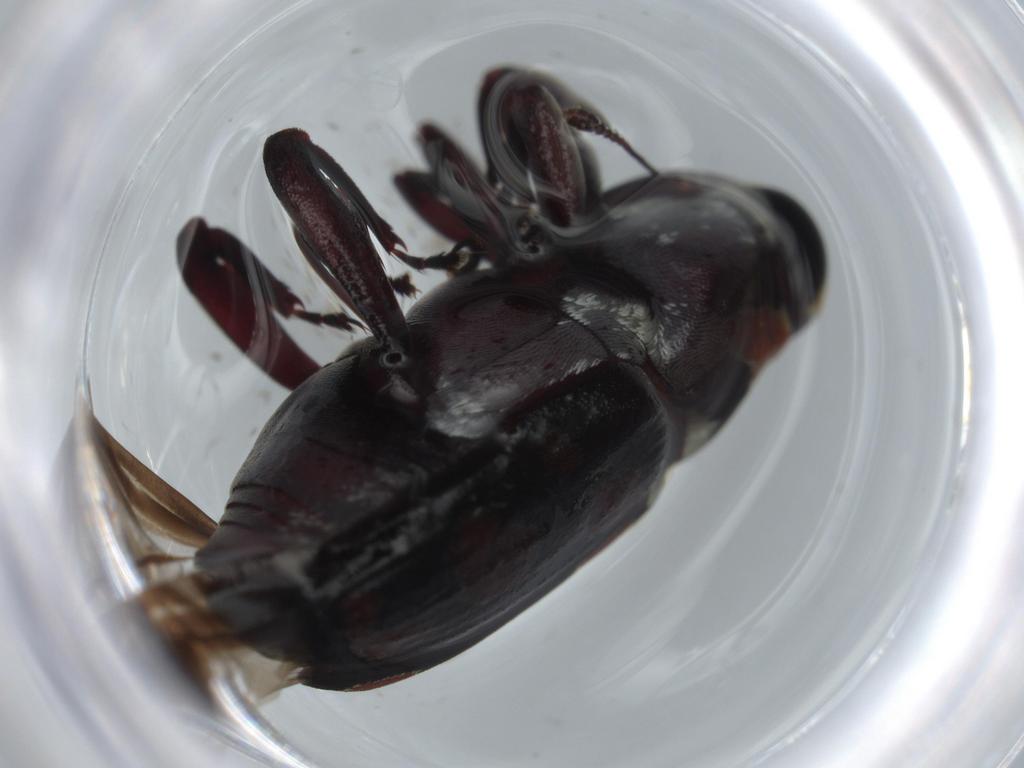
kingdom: Animalia
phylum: Arthropoda
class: Insecta
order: Coleoptera
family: Curculionidae
